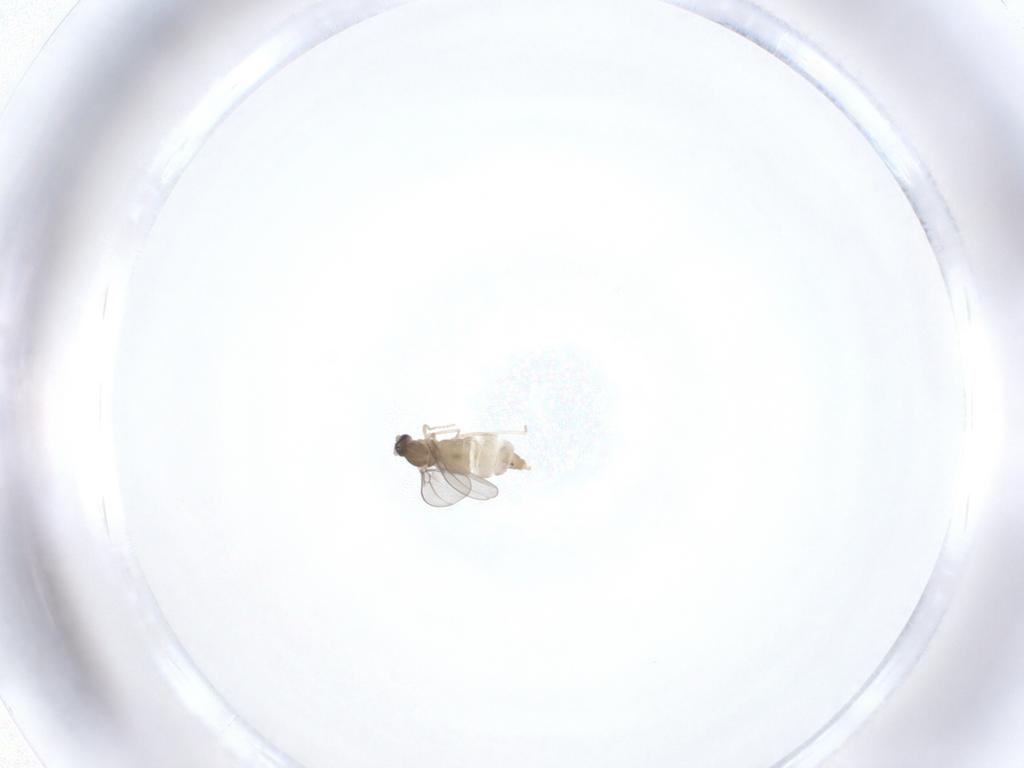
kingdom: Animalia
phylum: Arthropoda
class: Insecta
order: Diptera
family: Cecidomyiidae
